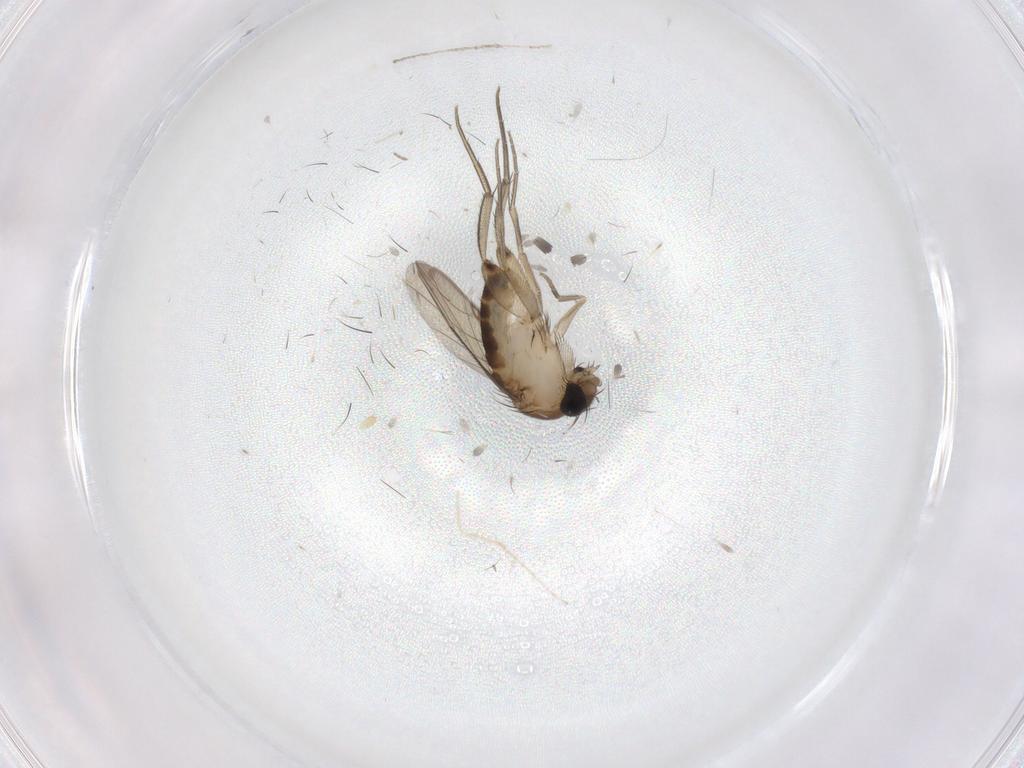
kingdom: Animalia
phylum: Arthropoda
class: Insecta
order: Diptera
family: Phoridae
